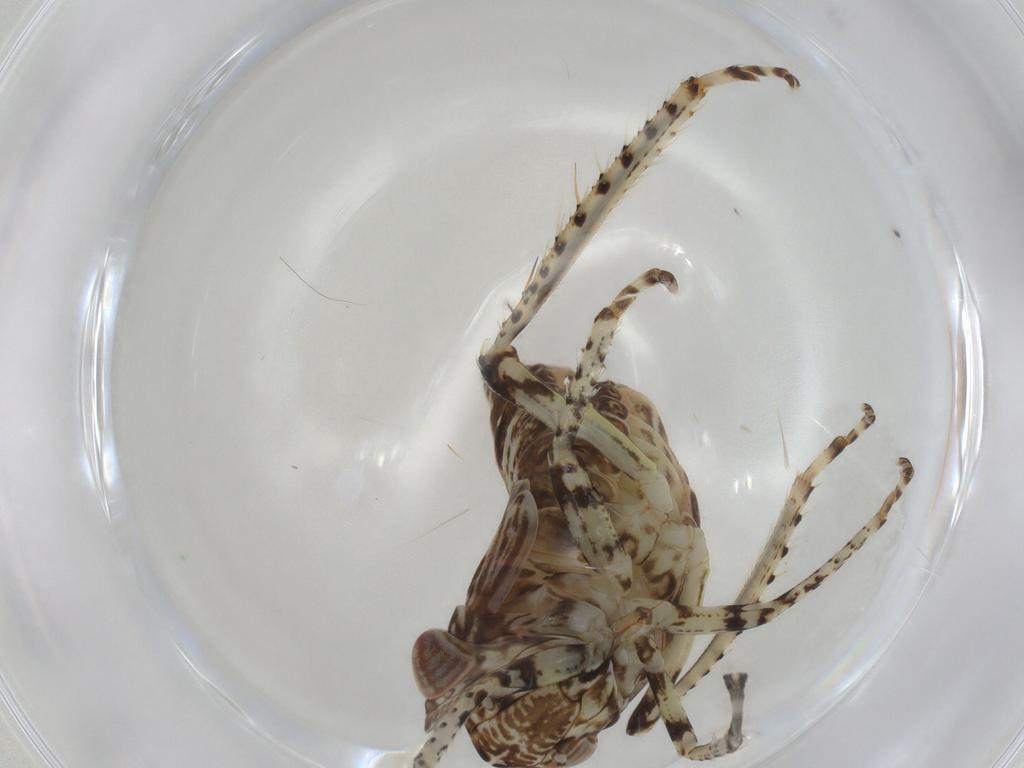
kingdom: Animalia
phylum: Arthropoda
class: Insecta
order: Hemiptera
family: Cicadellidae
